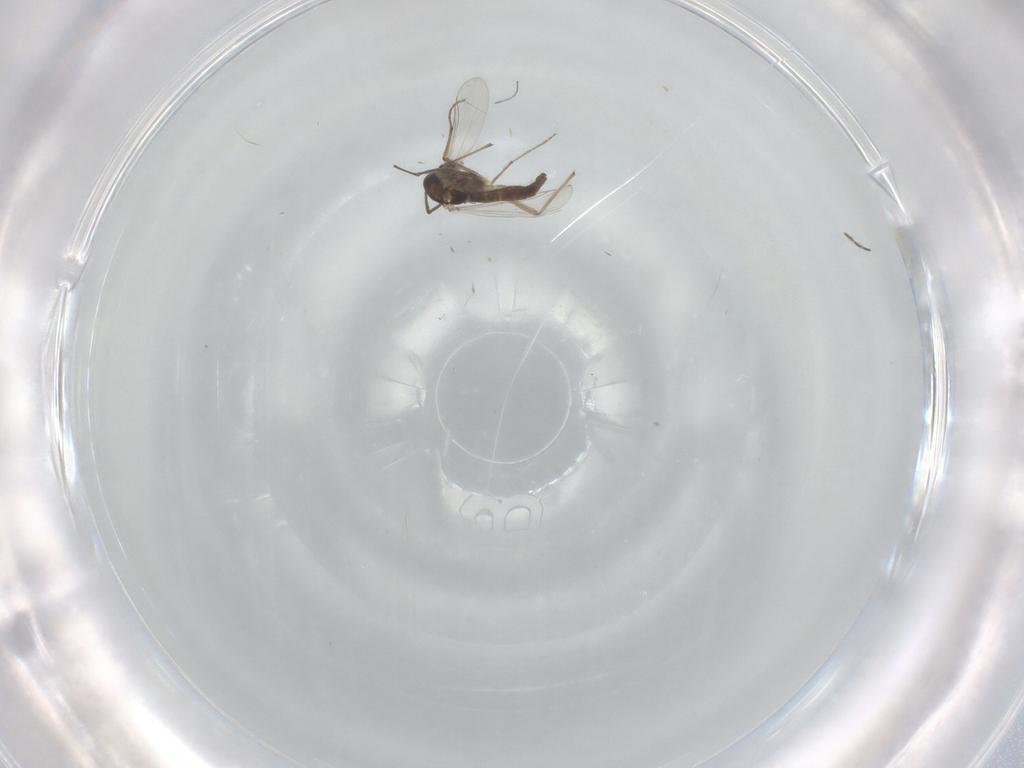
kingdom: Animalia
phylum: Arthropoda
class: Insecta
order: Diptera
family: Chironomidae
